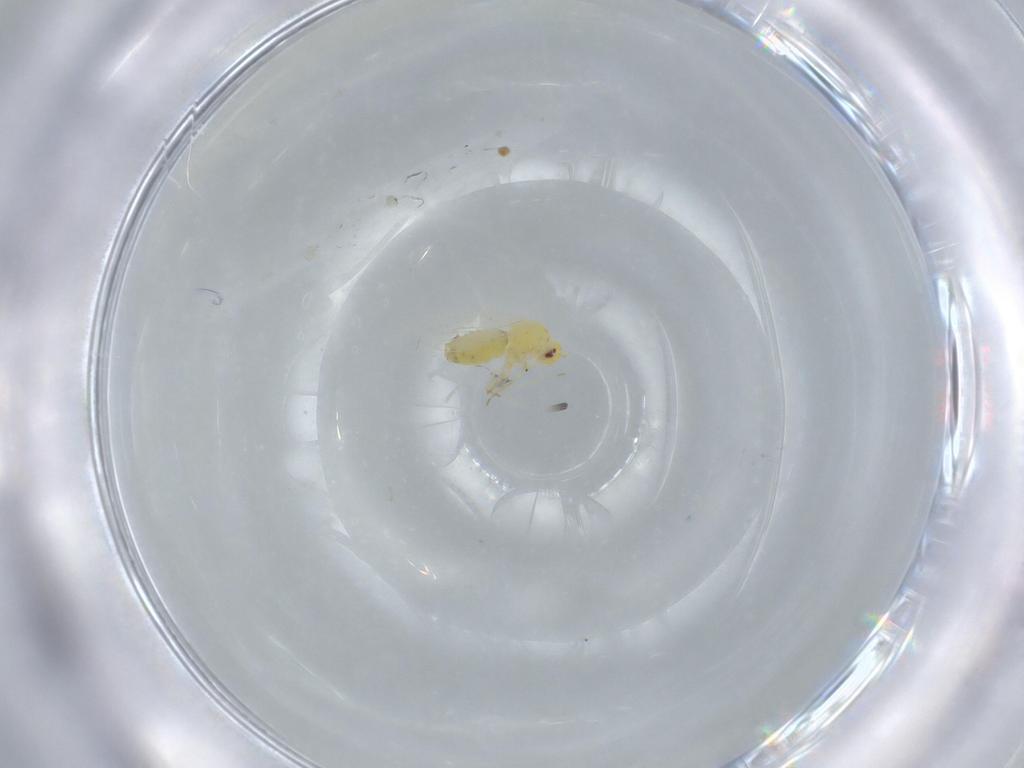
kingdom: Animalia
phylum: Arthropoda
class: Insecta
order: Hemiptera
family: Aleyrodidae
